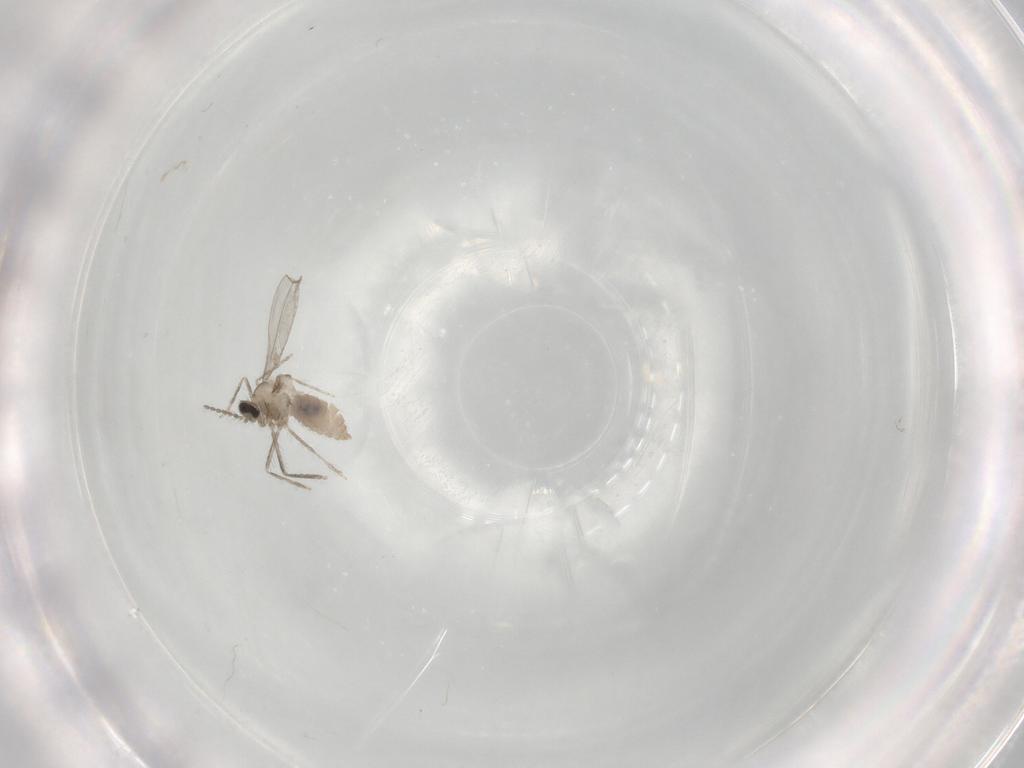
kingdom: Animalia
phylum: Arthropoda
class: Insecta
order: Diptera
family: Cecidomyiidae
